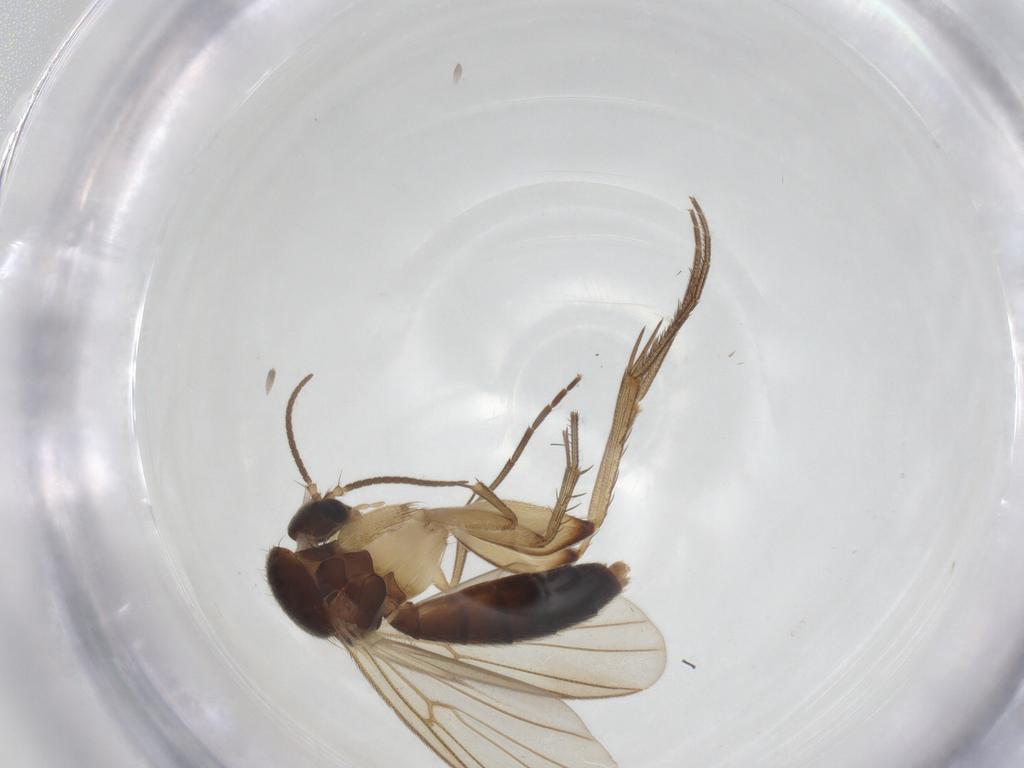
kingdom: Animalia
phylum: Arthropoda
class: Insecta
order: Diptera
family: Mycetophilidae
